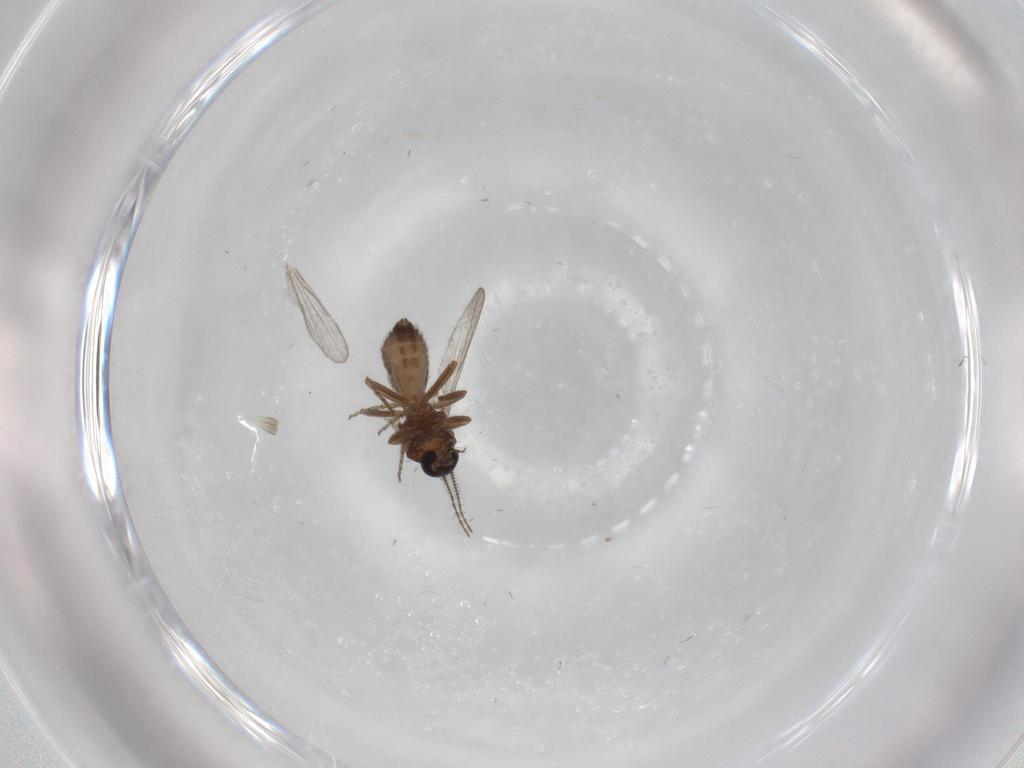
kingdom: Animalia
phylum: Arthropoda
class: Insecta
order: Diptera
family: Ceratopogonidae
